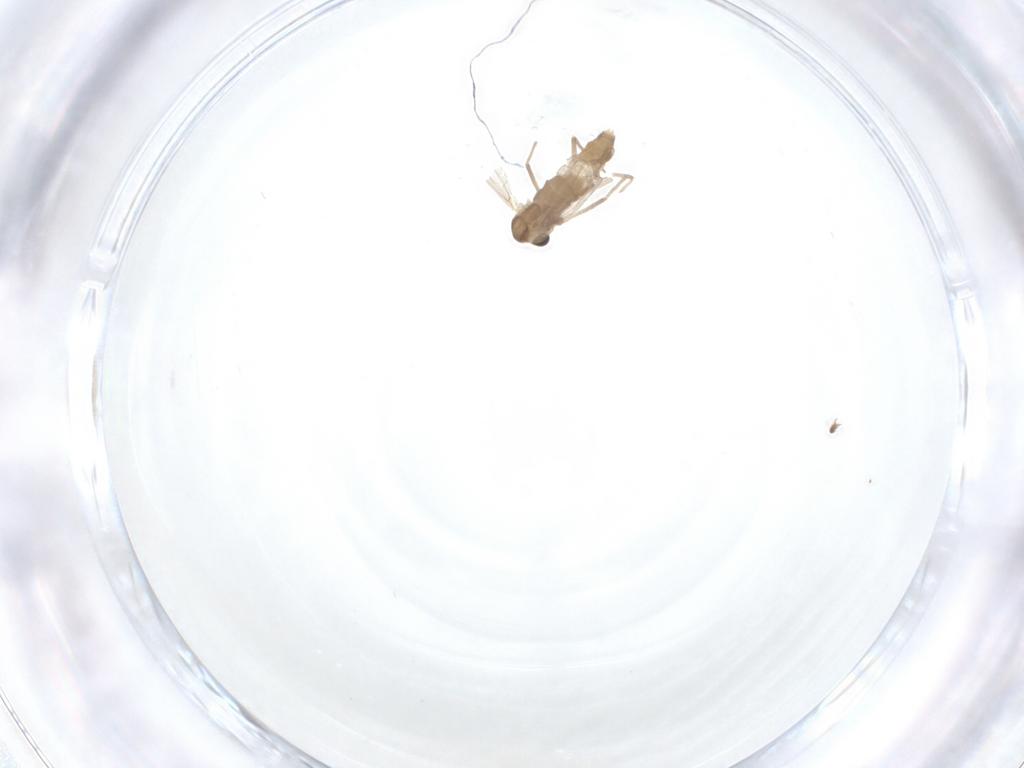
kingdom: Animalia
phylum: Arthropoda
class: Insecta
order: Diptera
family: Chironomidae
